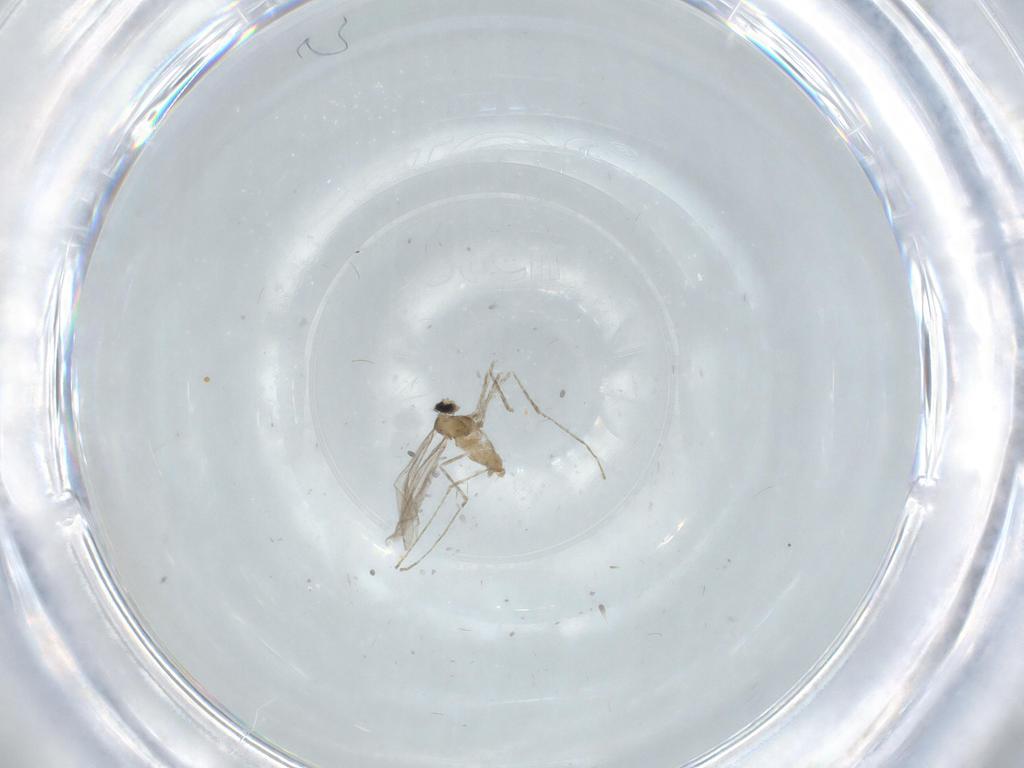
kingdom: Animalia
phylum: Arthropoda
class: Insecta
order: Diptera
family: Cecidomyiidae
